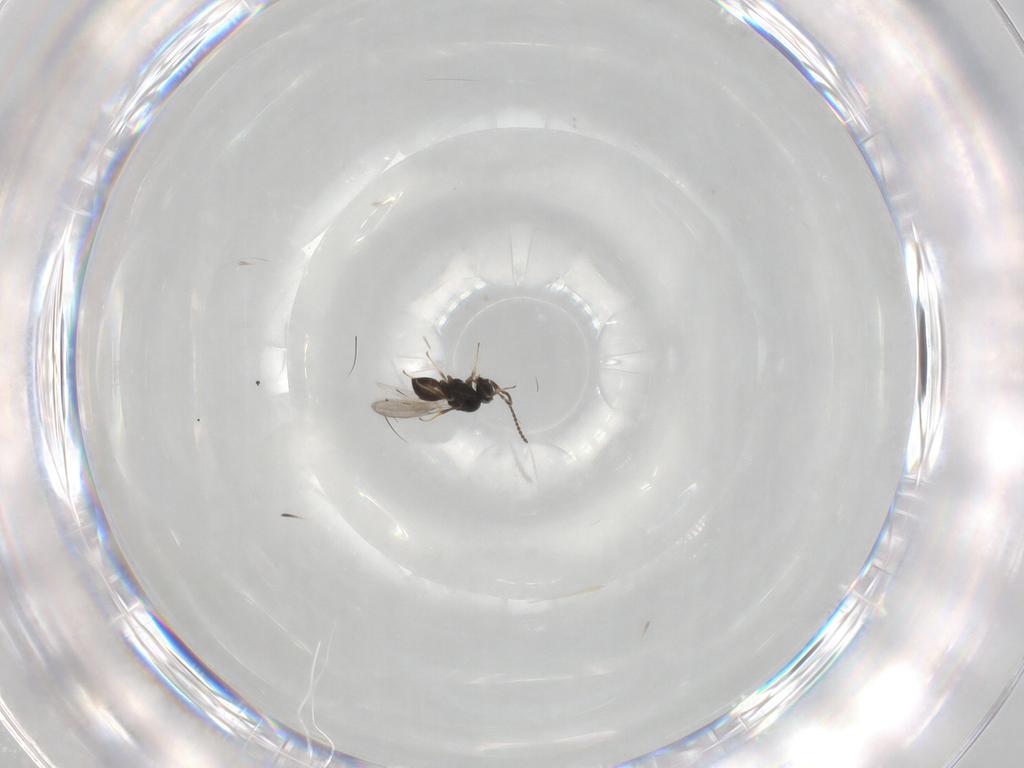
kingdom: Animalia
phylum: Arthropoda
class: Insecta
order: Hymenoptera
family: Scelionidae
